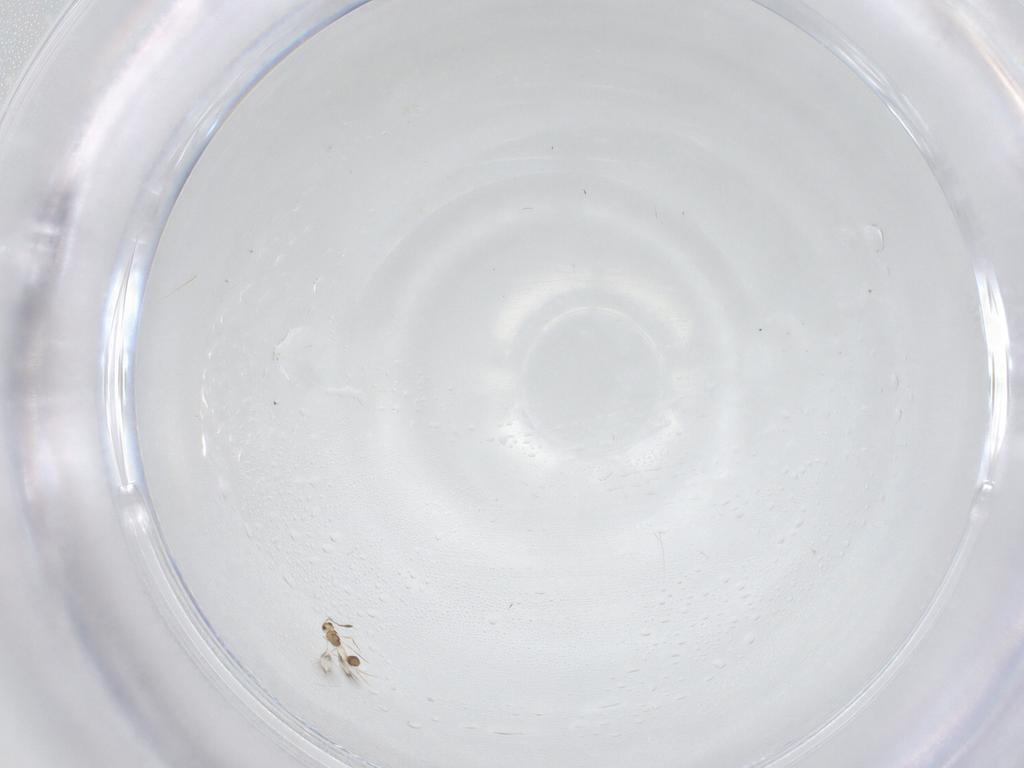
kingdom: Animalia
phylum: Arthropoda
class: Insecta
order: Hymenoptera
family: Mymarommatidae
